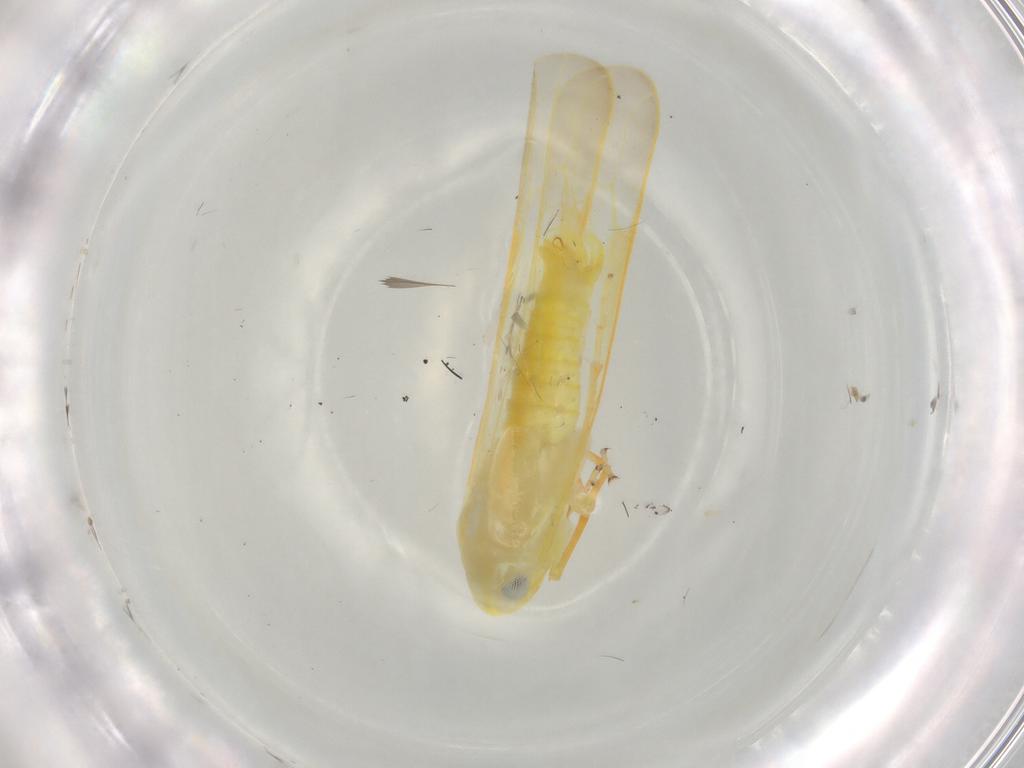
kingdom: Animalia
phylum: Arthropoda
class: Insecta
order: Hemiptera
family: Cicadellidae
